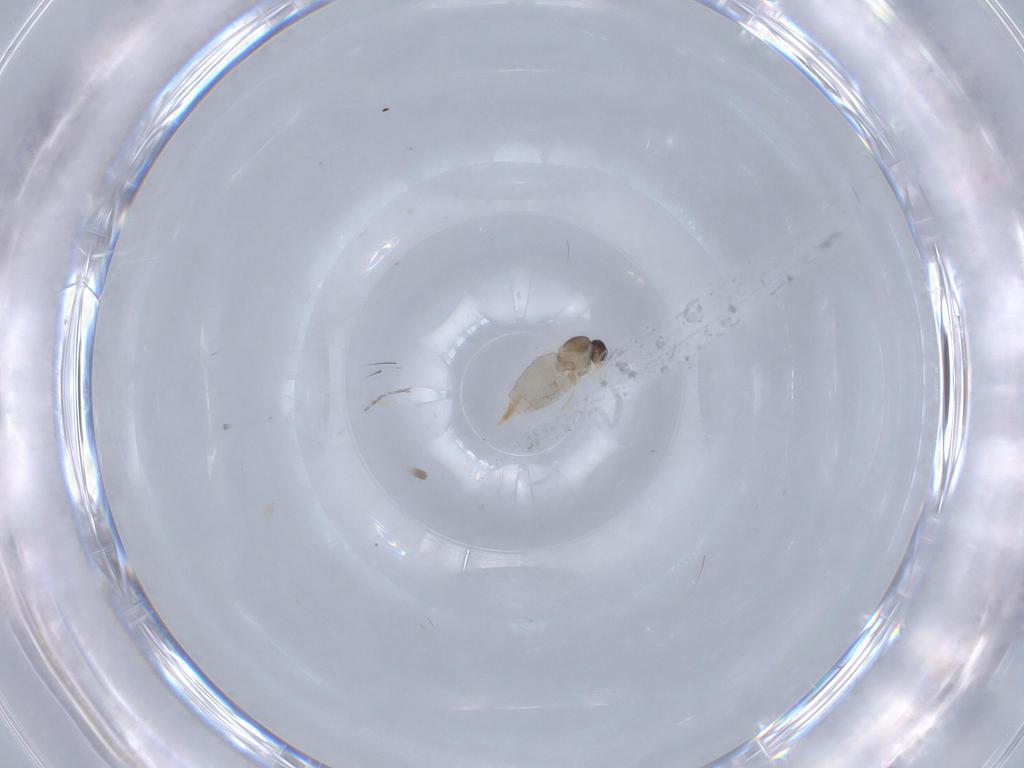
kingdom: Animalia
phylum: Arthropoda
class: Insecta
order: Diptera
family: Cecidomyiidae
